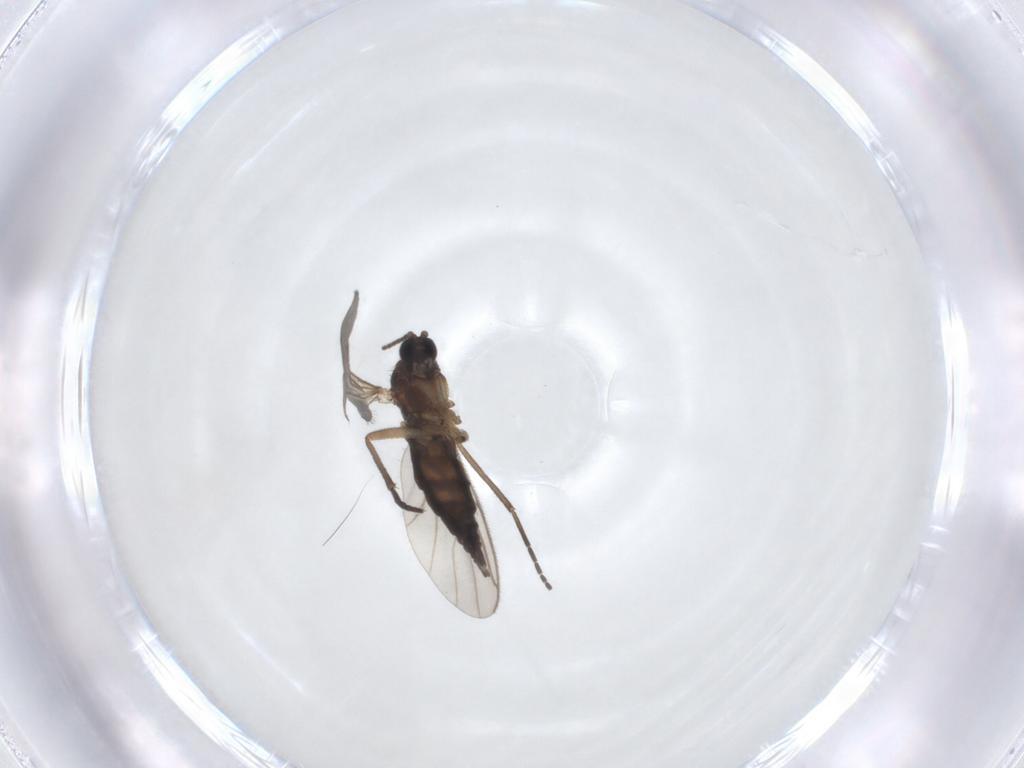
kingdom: Animalia
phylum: Arthropoda
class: Insecta
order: Diptera
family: Sciaridae
